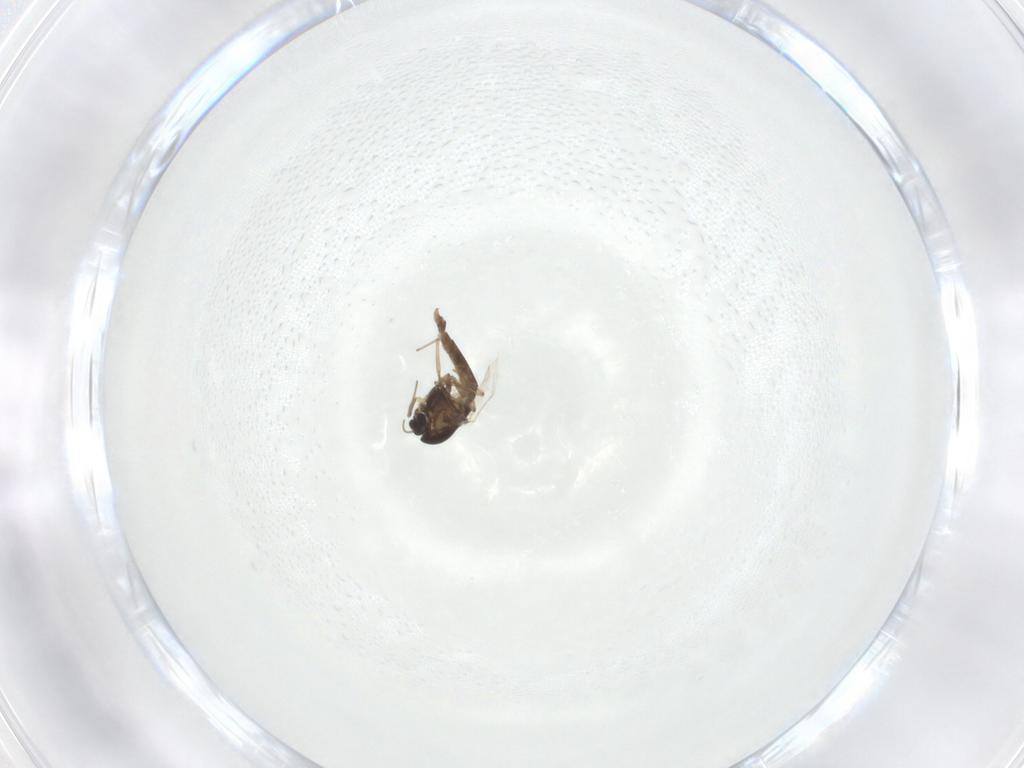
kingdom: Animalia
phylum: Arthropoda
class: Insecta
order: Diptera
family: Chironomidae
